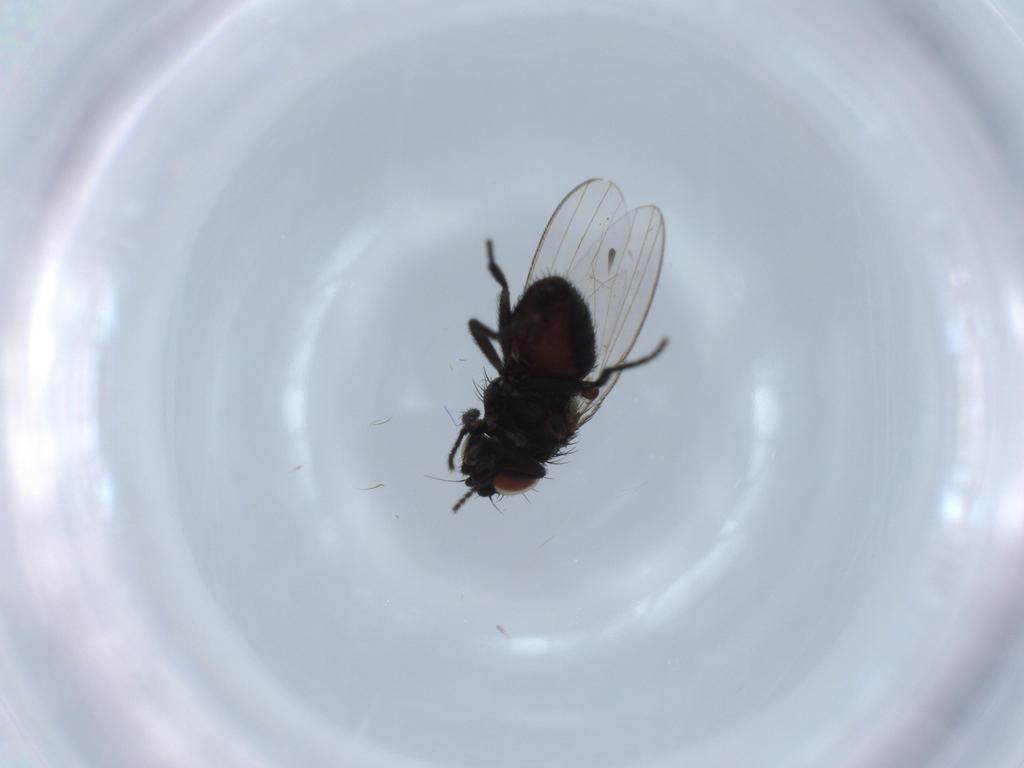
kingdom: Animalia
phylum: Arthropoda
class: Insecta
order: Diptera
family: Milichiidae
